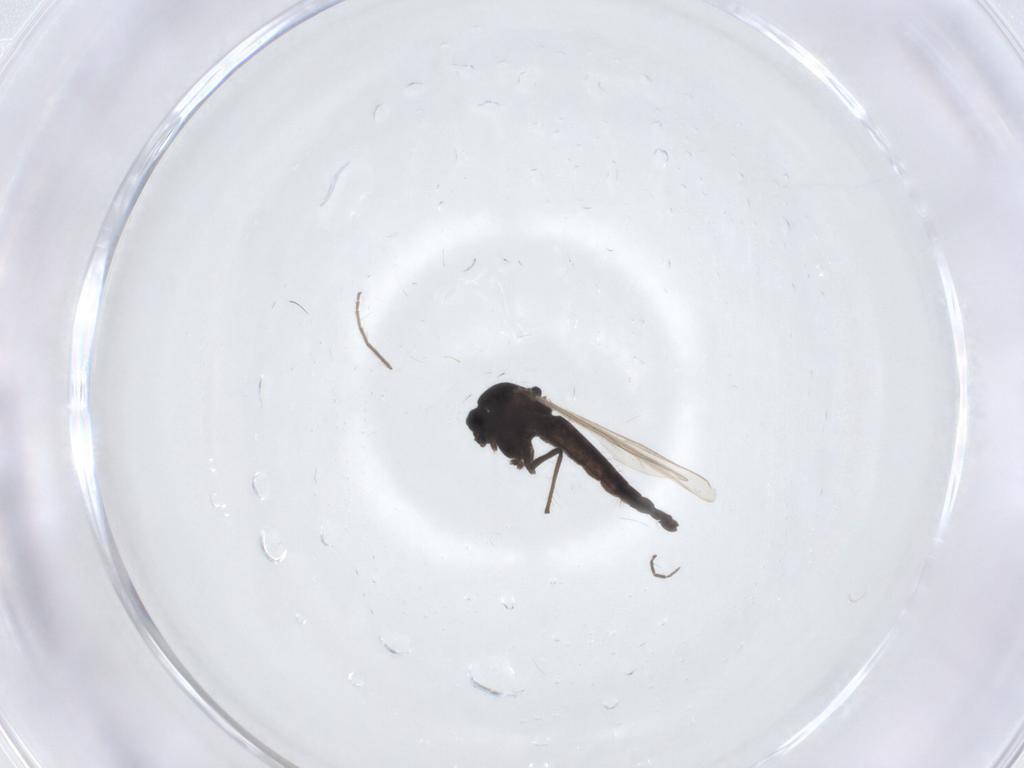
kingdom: Animalia
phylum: Arthropoda
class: Insecta
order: Diptera
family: Chironomidae
